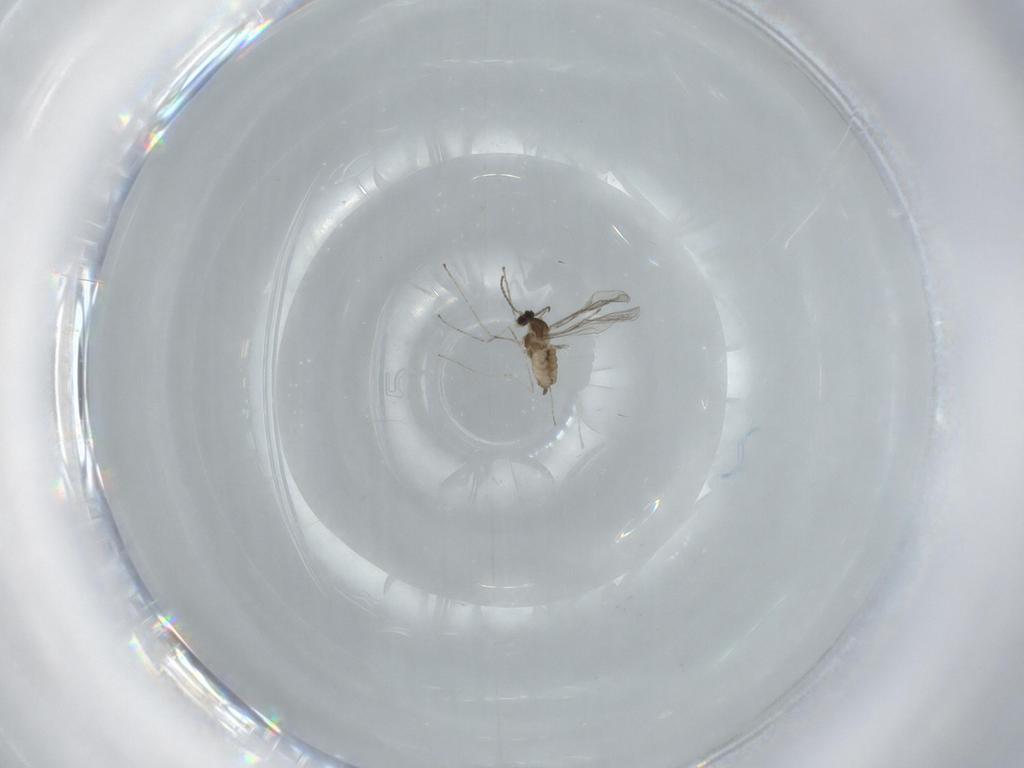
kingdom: Animalia
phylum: Arthropoda
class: Insecta
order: Diptera
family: Cecidomyiidae
